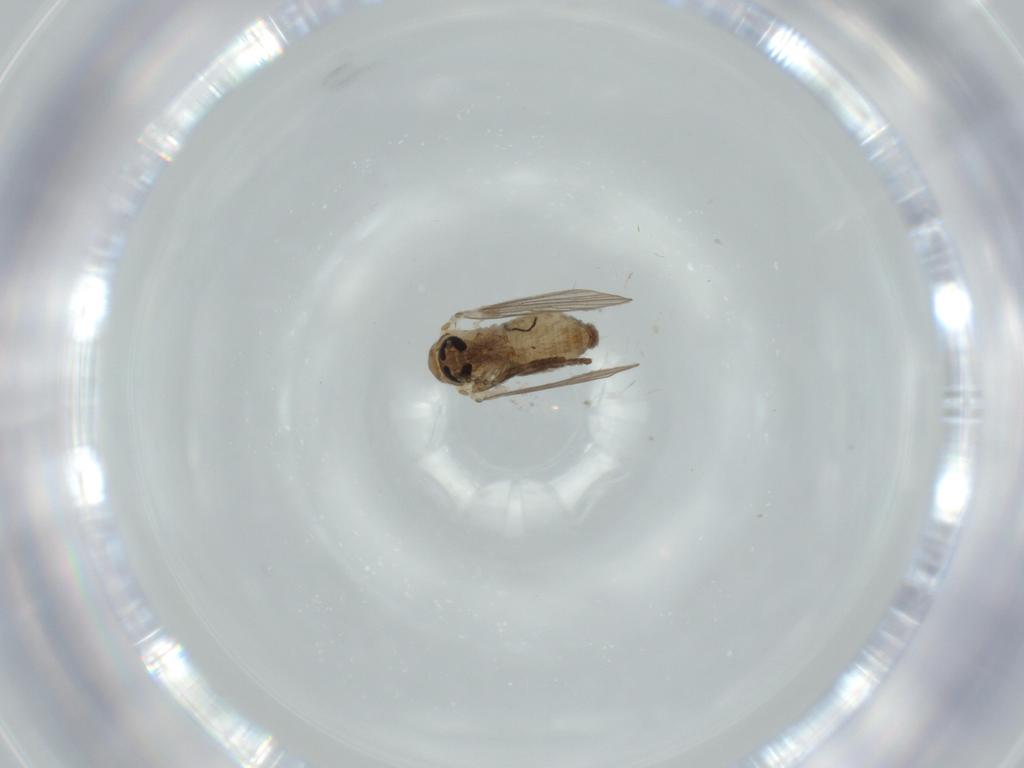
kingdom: Animalia
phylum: Arthropoda
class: Insecta
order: Diptera
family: Psychodidae
